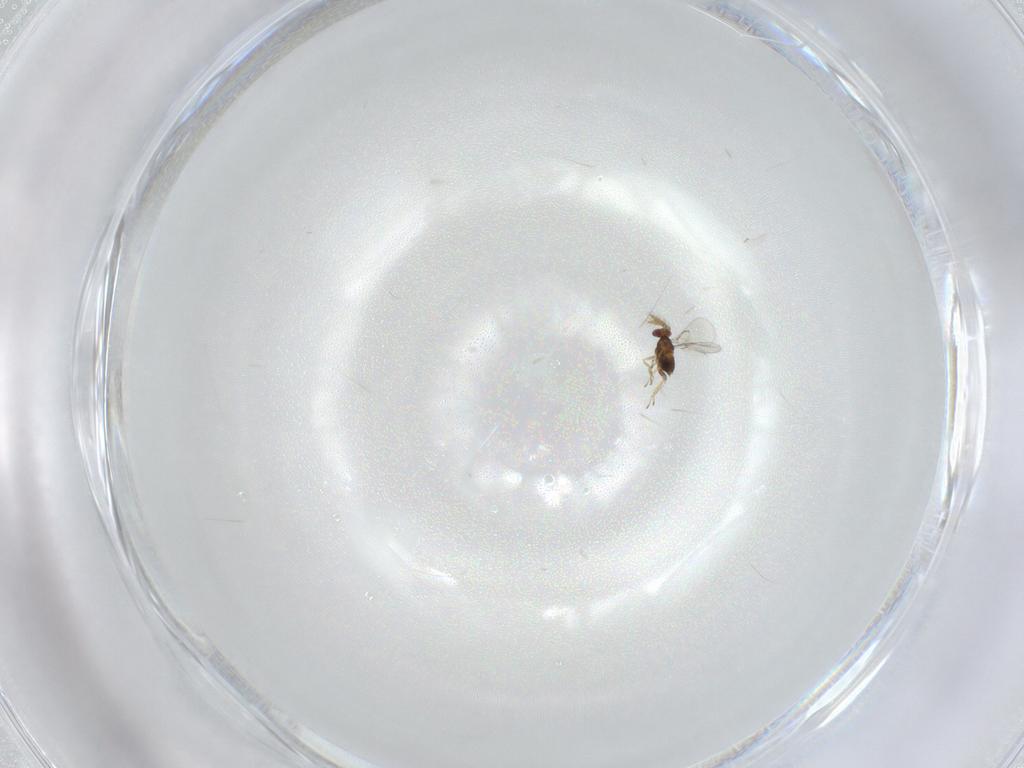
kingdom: Animalia
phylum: Arthropoda
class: Insecta
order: Hymenoptera
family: Trichogrammatidae
